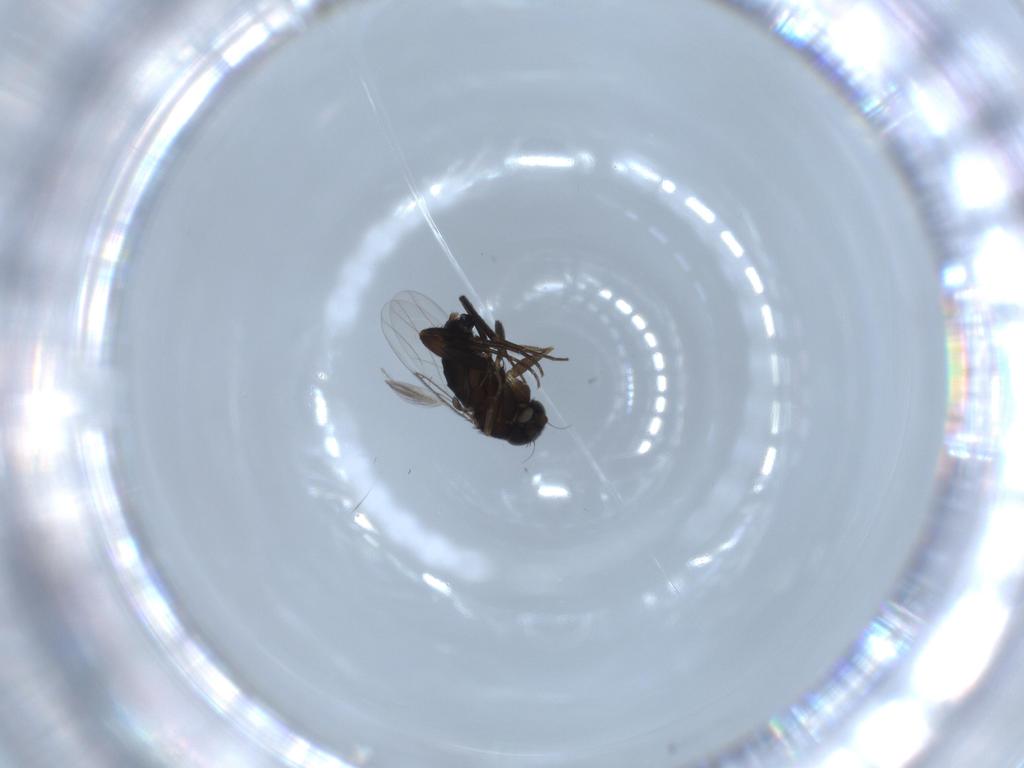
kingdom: Animalia
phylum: Arthropoda
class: Insecta
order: Diptera
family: Phoridae
